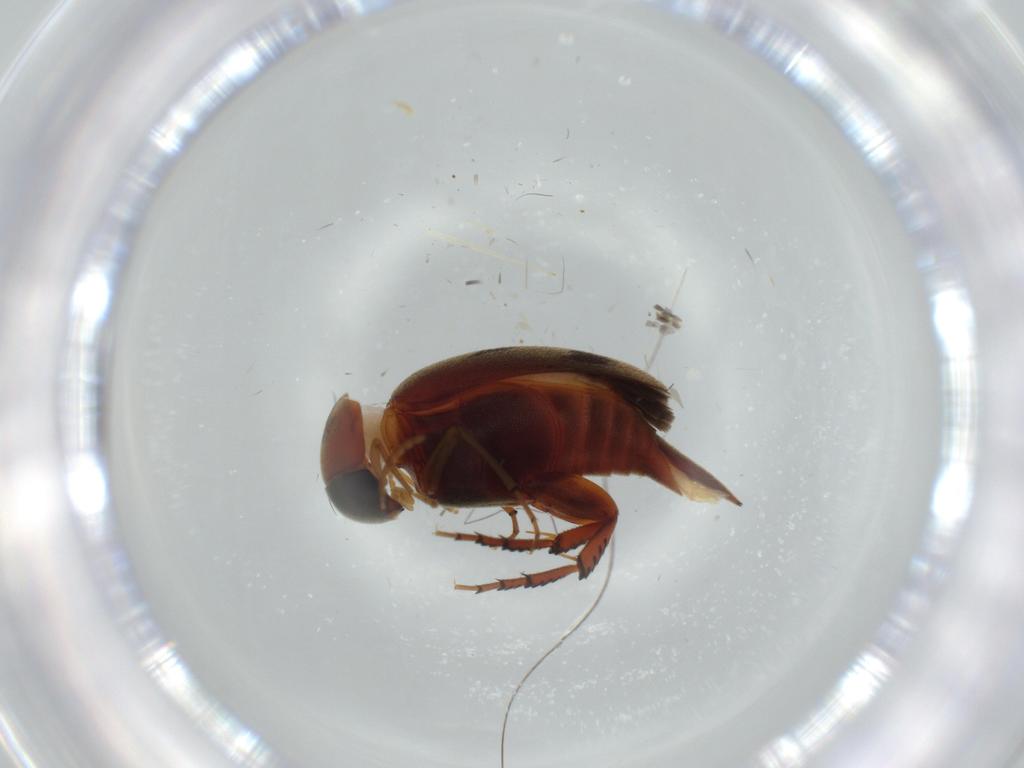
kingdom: Animalia
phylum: Arthropoda
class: Insecta
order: Coleoptera
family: Mordellidae
